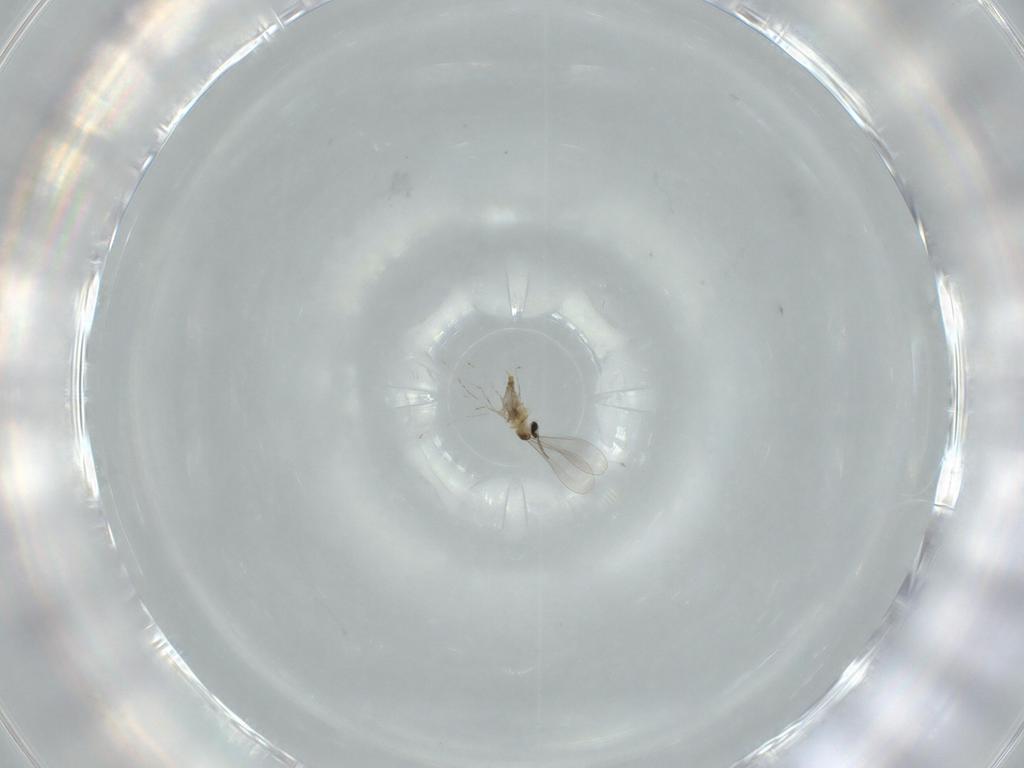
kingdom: Animalia
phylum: Arthropoda
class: Insecta
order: Diptera
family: Drosophilidae
